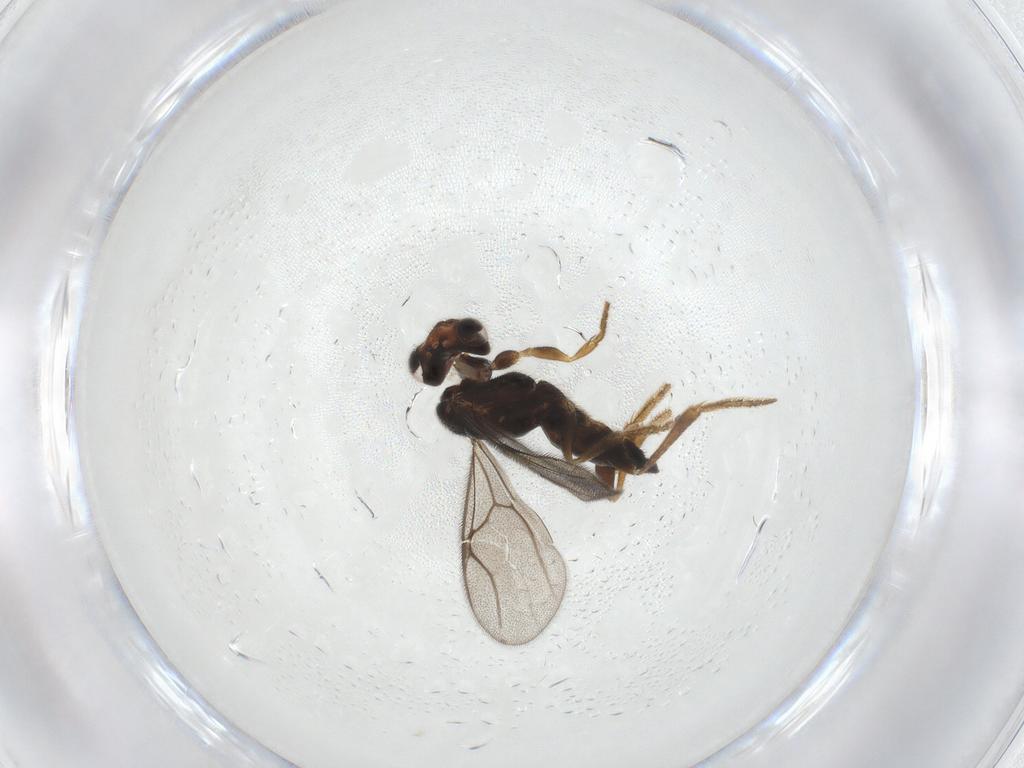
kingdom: Animalia
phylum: Arthropoda
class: Insecta
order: Hymenoptera
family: Dryinidae
